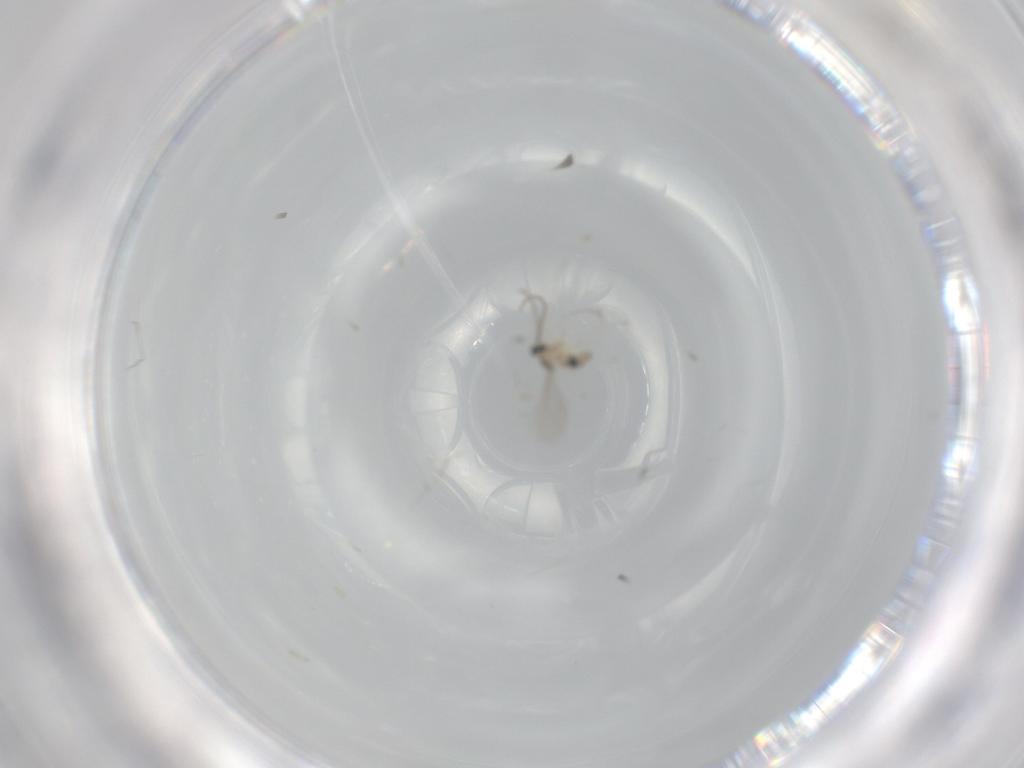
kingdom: Animalia
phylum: Arthropoda
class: Insecta
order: Diptera
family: Cecidomyiidae
